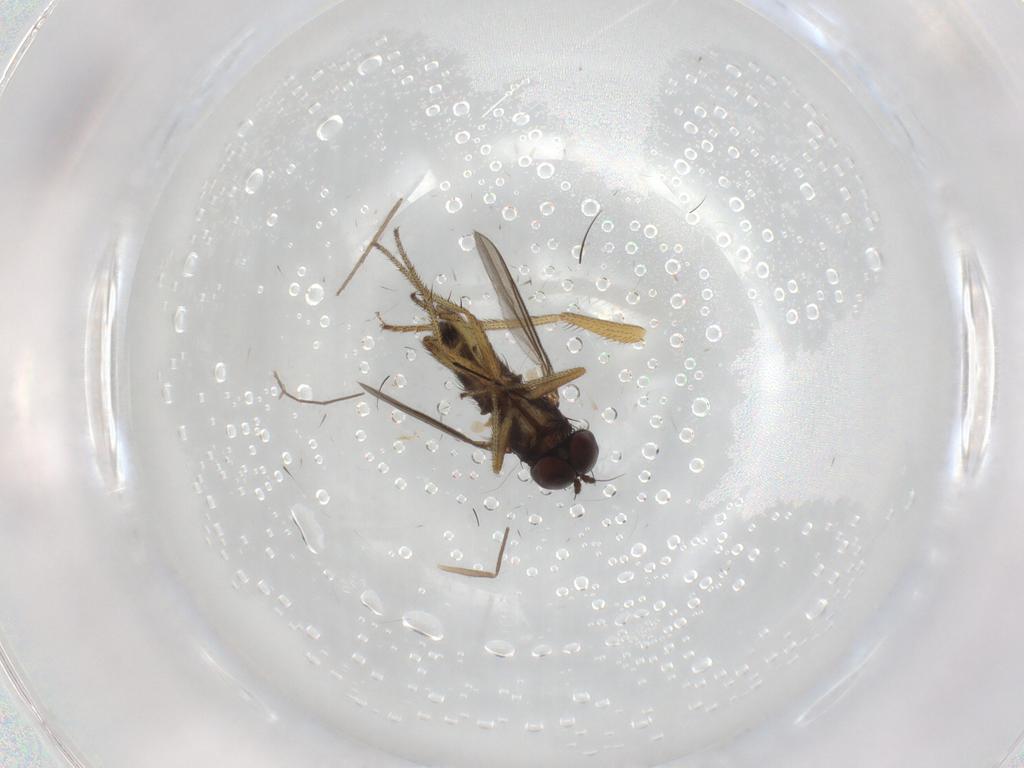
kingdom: Animalia
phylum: Arthropoda
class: Insecta
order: Diptera
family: Dolichopodidae
